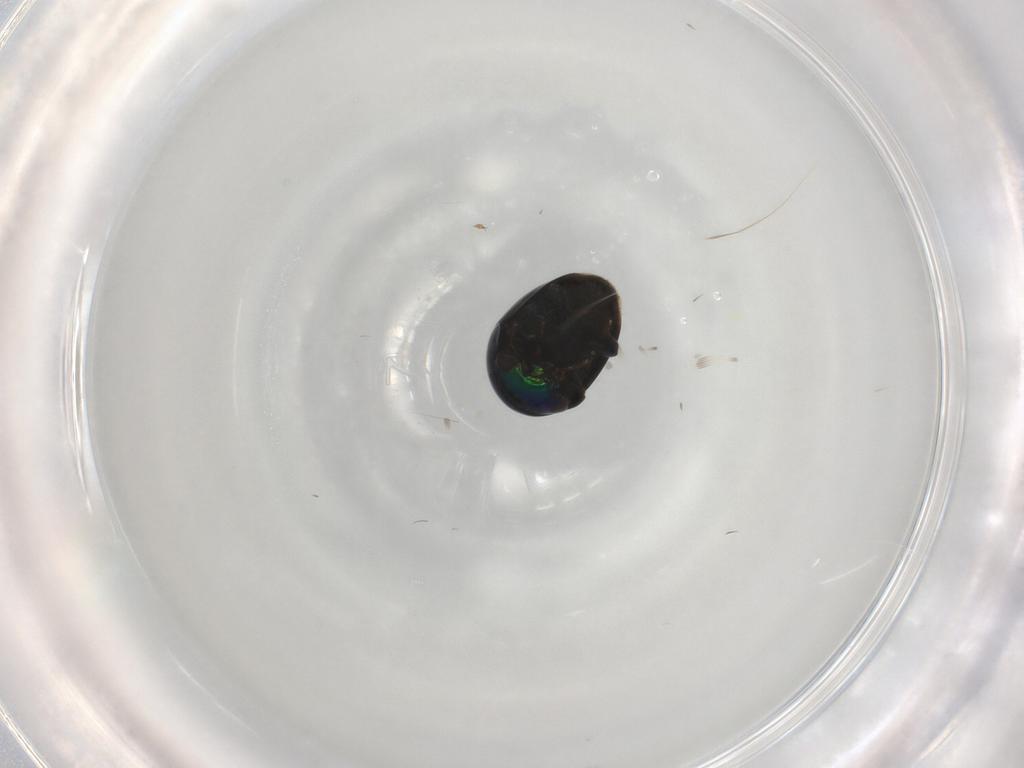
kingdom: Animalia
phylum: Arthropoda
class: Insecta
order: Coleoptera
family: Cybocephalidae
